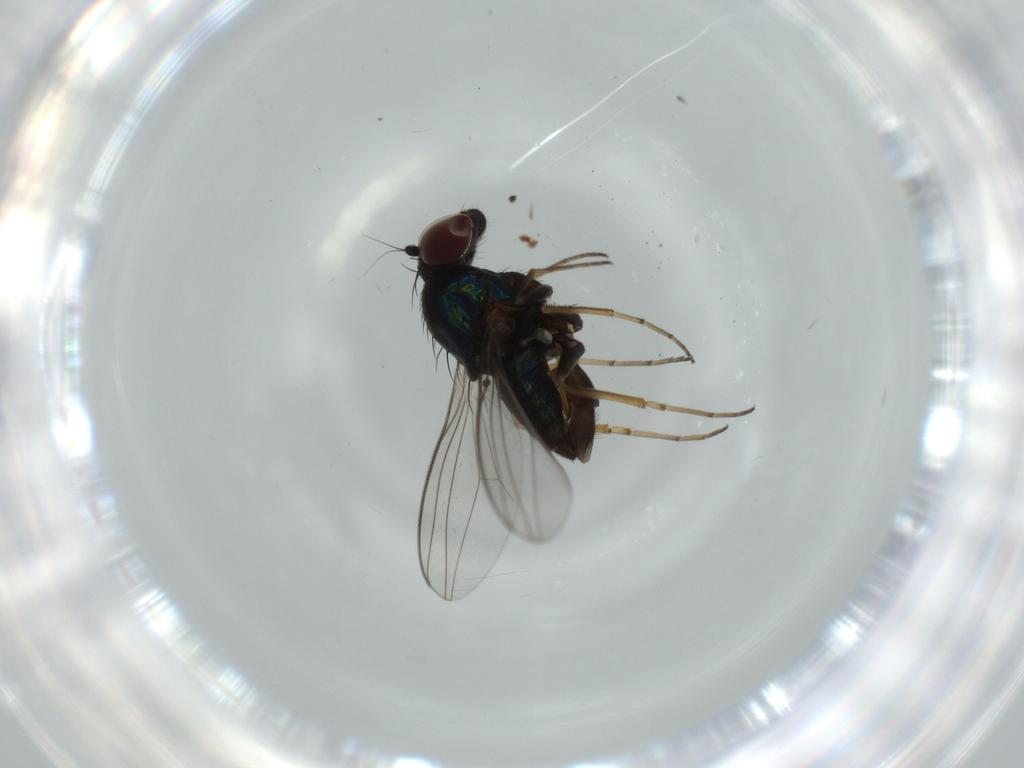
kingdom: Animalia
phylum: Arthropoda
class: Insecta
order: Diptera
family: Dolichopodidae
